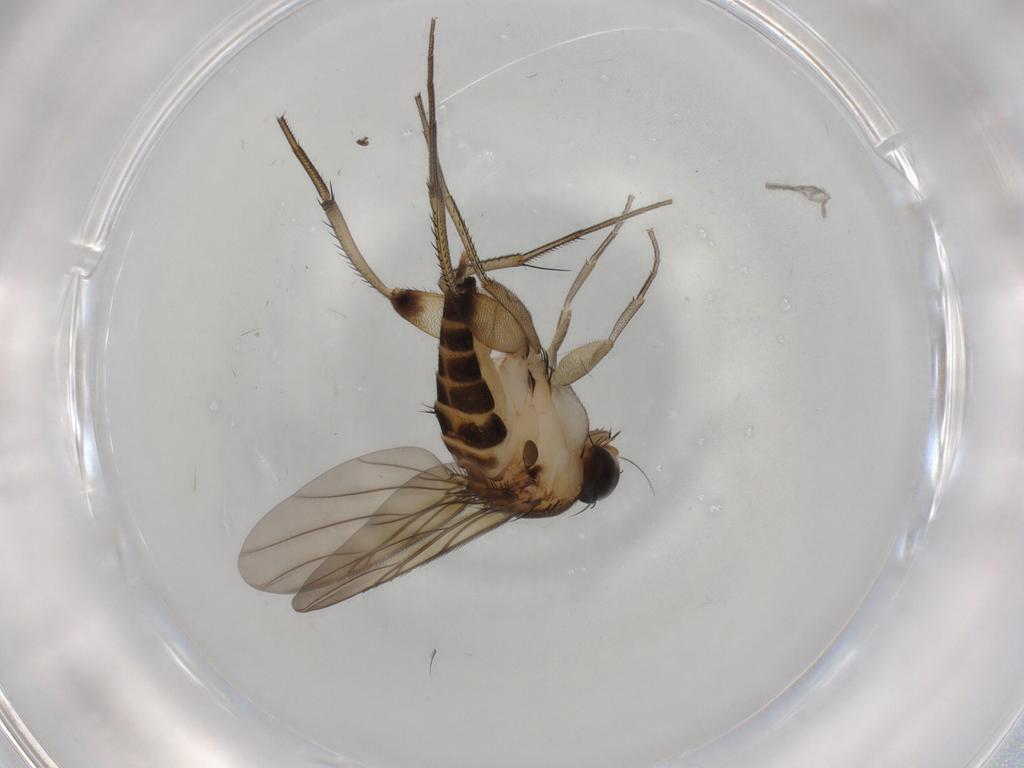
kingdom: Animalia
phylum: Arthropoda
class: Insecta
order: Diptera
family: Phoridae
